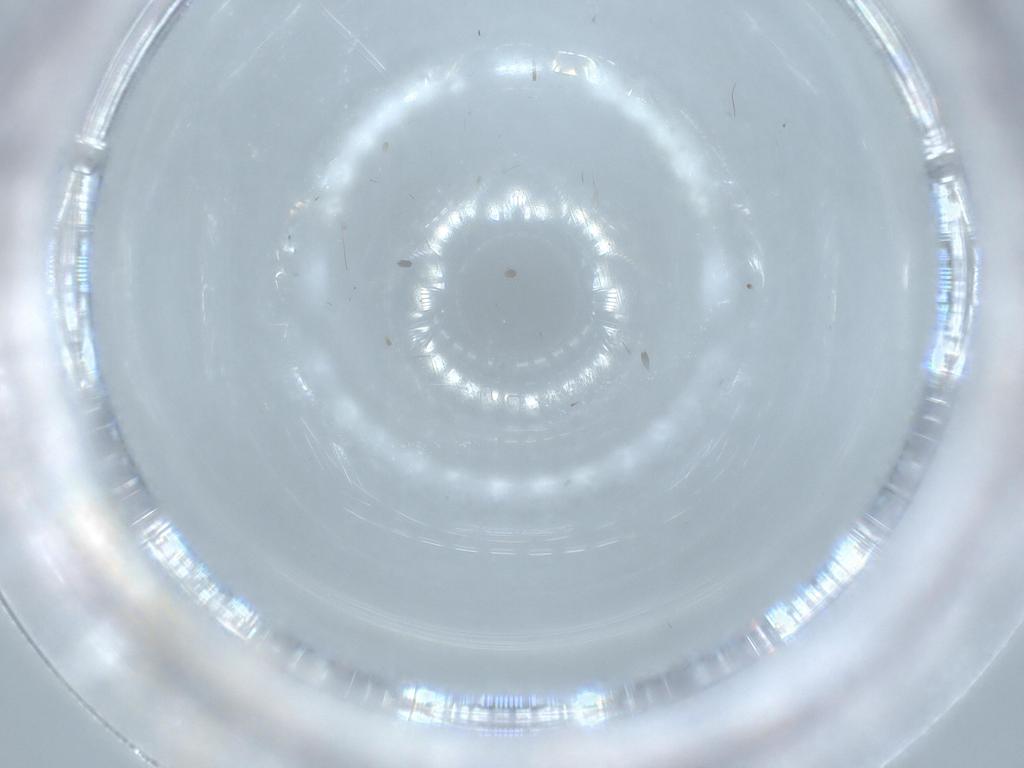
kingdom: Animalia
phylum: Arthropoda
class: Insecta
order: Diptera
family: Cecidomyiidae
